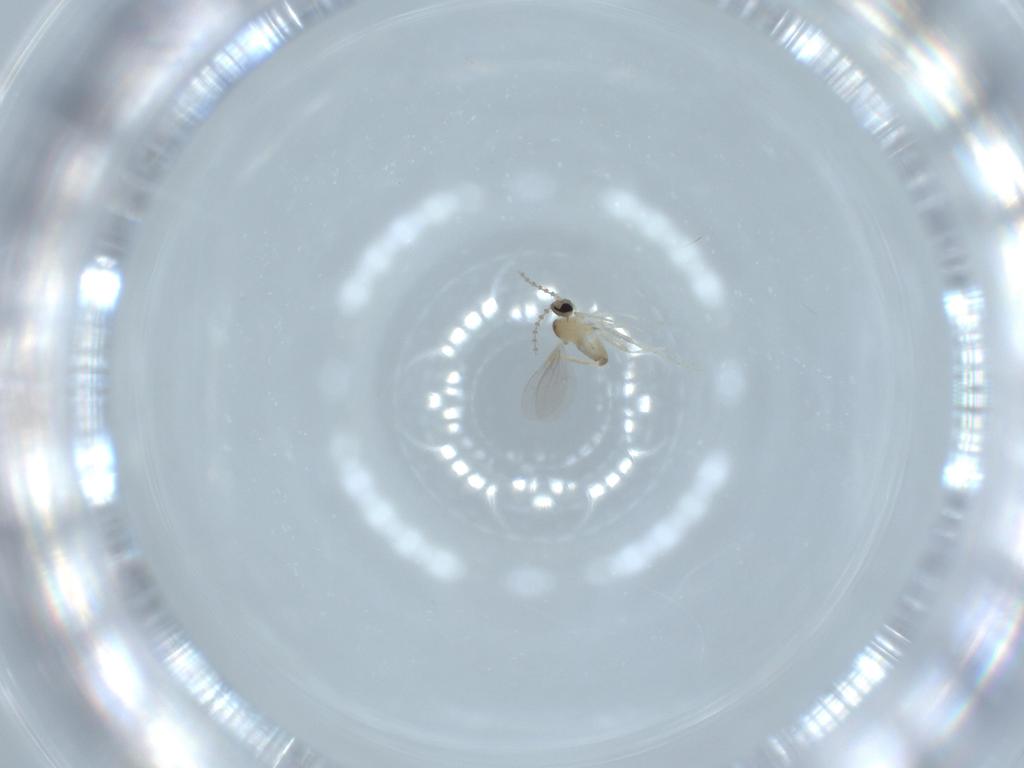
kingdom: Animalia
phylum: Arthropoda
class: Insecta
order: Diptera
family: Cecidomyiidae
